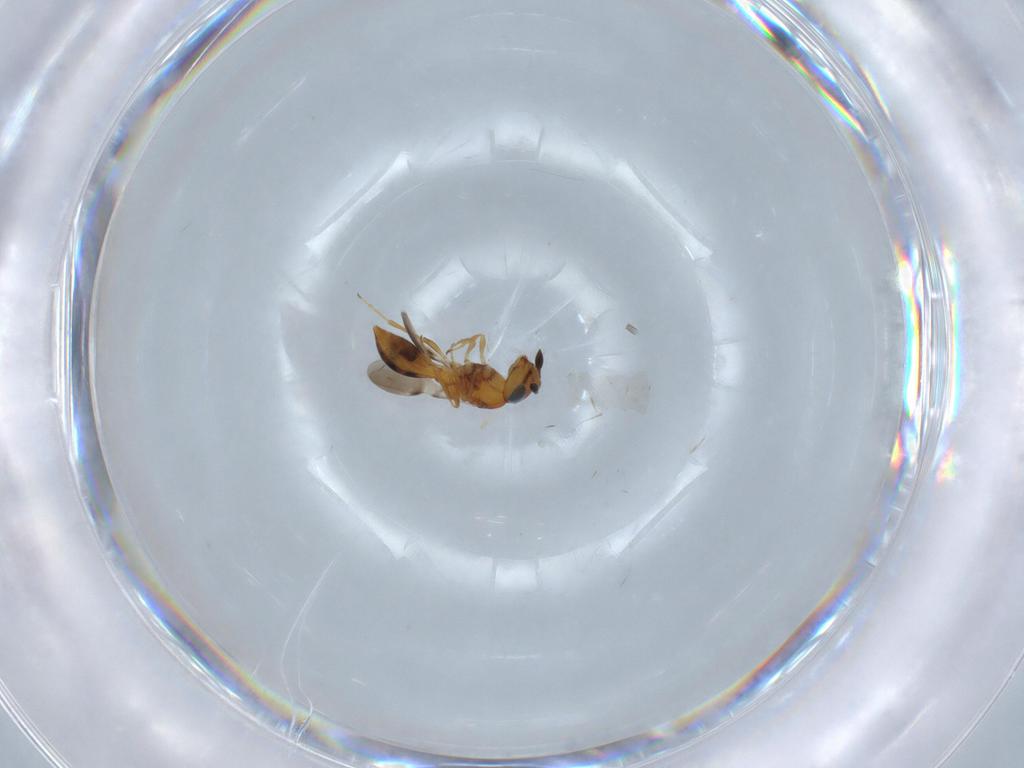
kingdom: Animalia
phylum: Arthropoda
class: Insecta
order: Hymenoptera
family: Scelionidae
